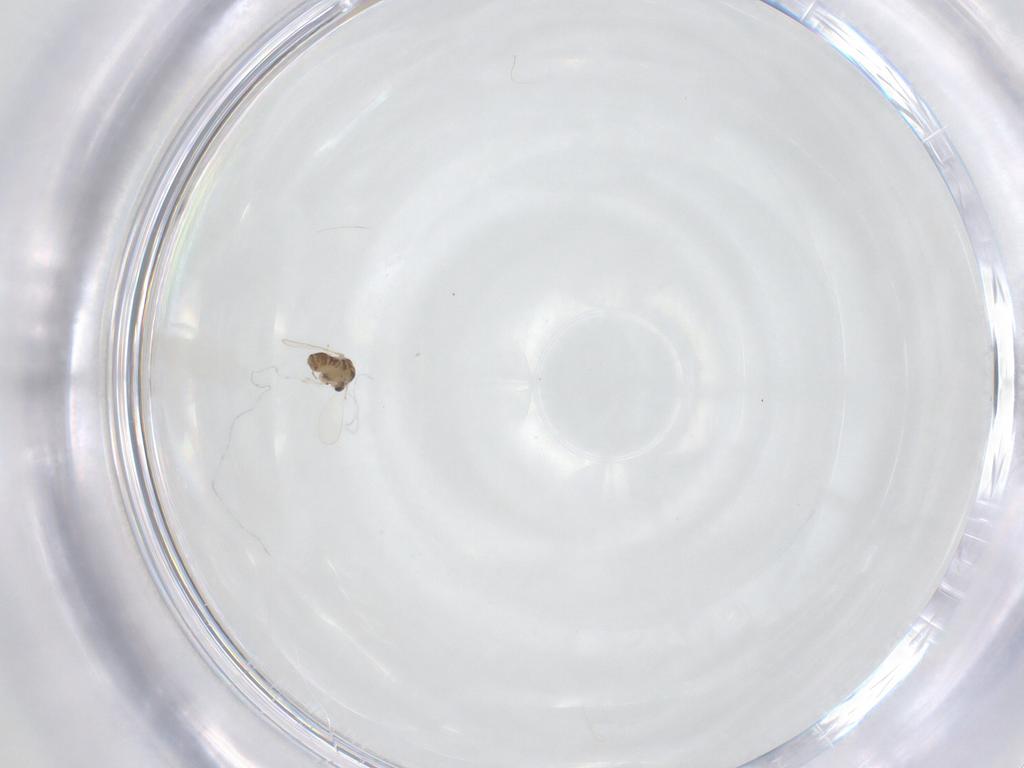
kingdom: Animalia
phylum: Arthropoda
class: Insecta
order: Diptera
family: Chironomidae
